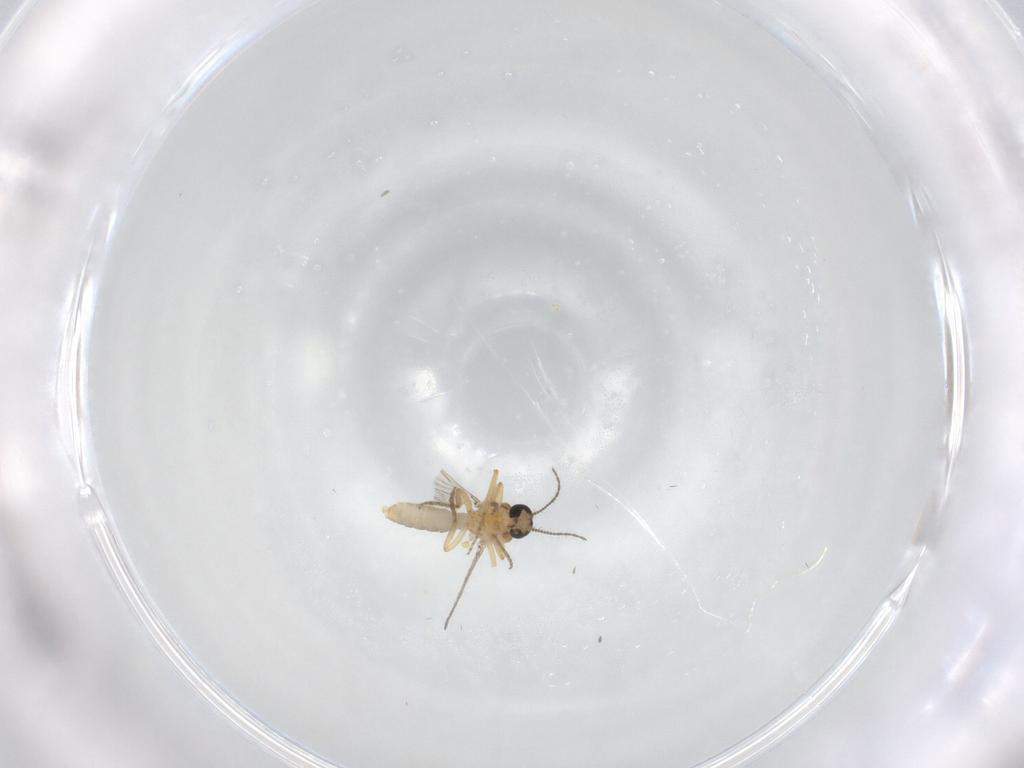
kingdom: Animalia
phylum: Arthropoda
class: Insecta
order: Diptera
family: Ceratopogonidae
